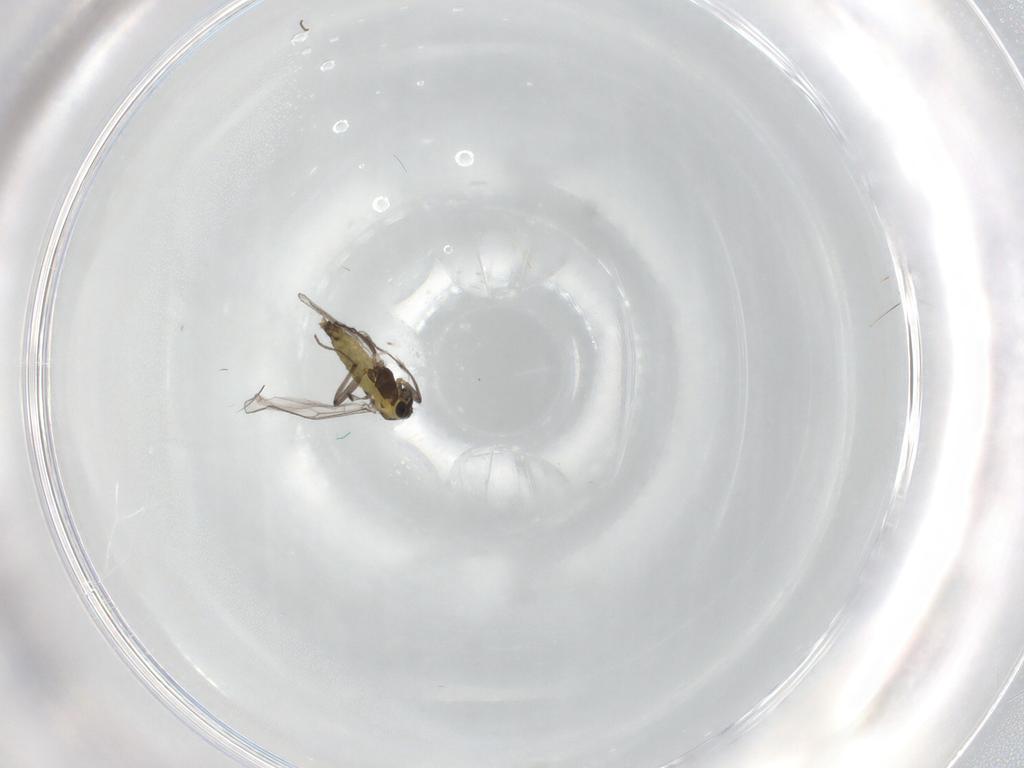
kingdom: Animalia
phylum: Arthropoda
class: Insecta
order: Diptera
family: Chironomidae
